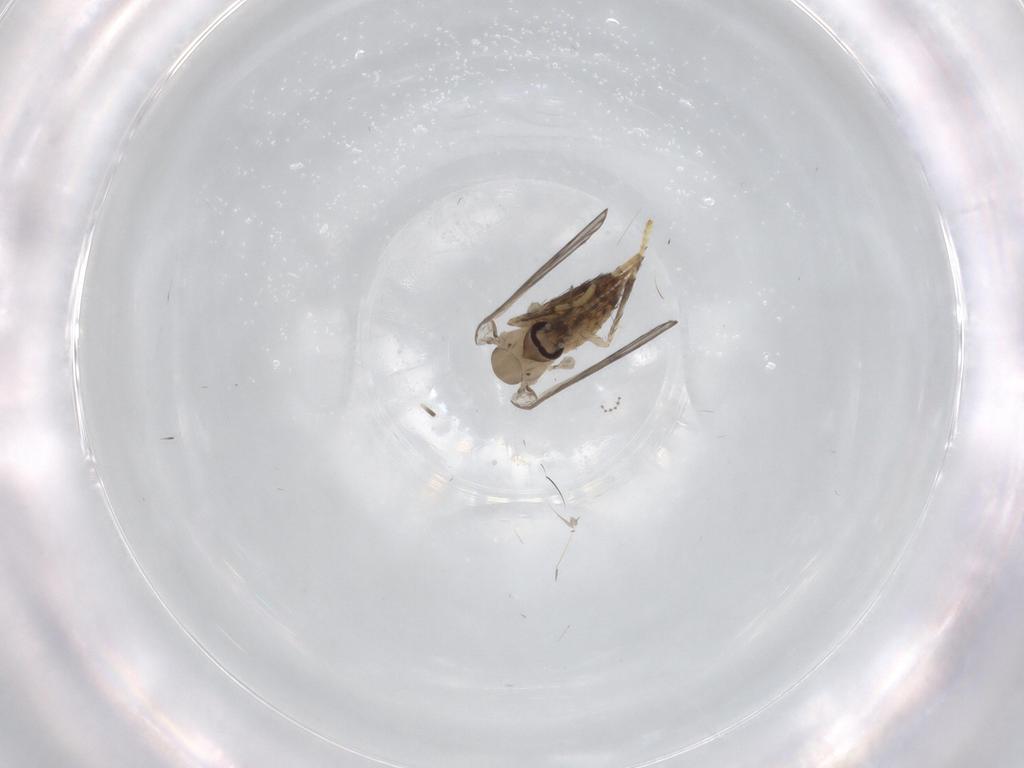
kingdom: Animalia
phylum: Arthropoda
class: Insecta
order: Diptera
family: Psychodidae
